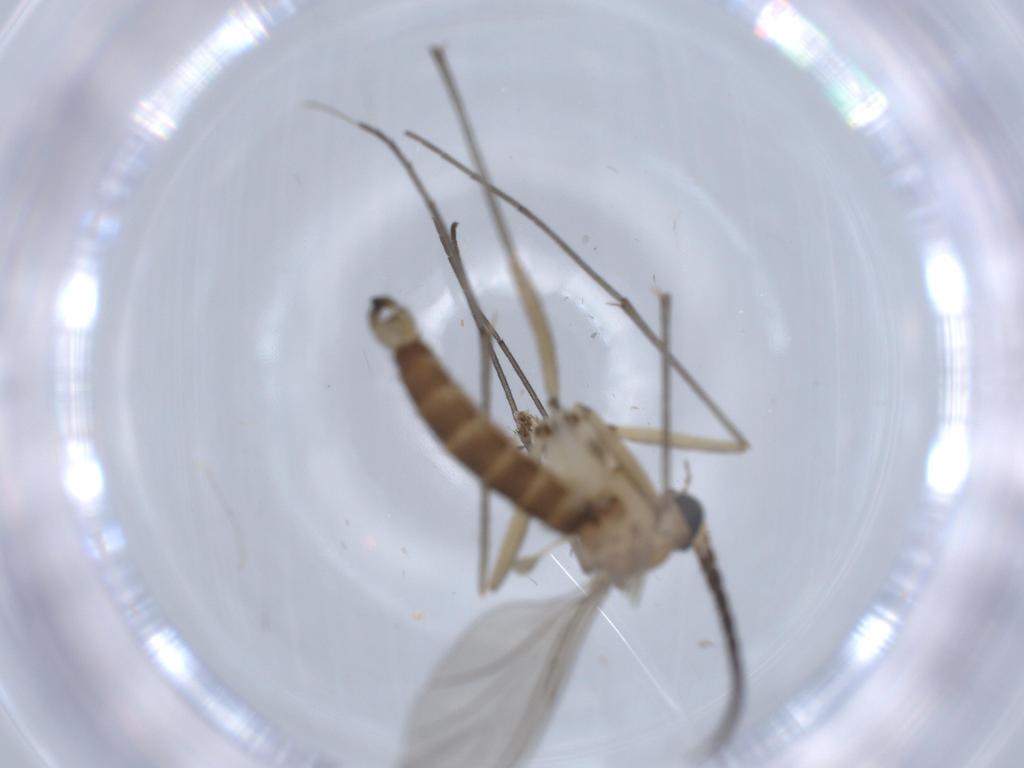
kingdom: Animalia
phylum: Arthropoda
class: Insecta
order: Diptera
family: Sciaridae
